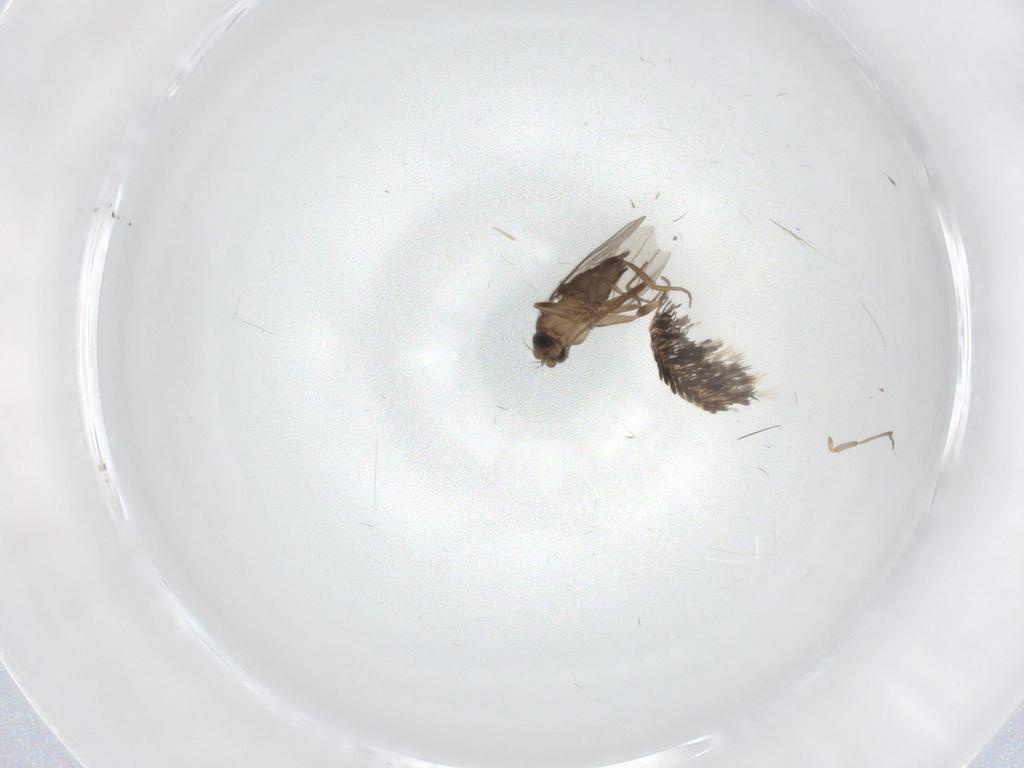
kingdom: Animalia
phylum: Arthropoda
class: Insecta
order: Diptera
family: Phoridae
